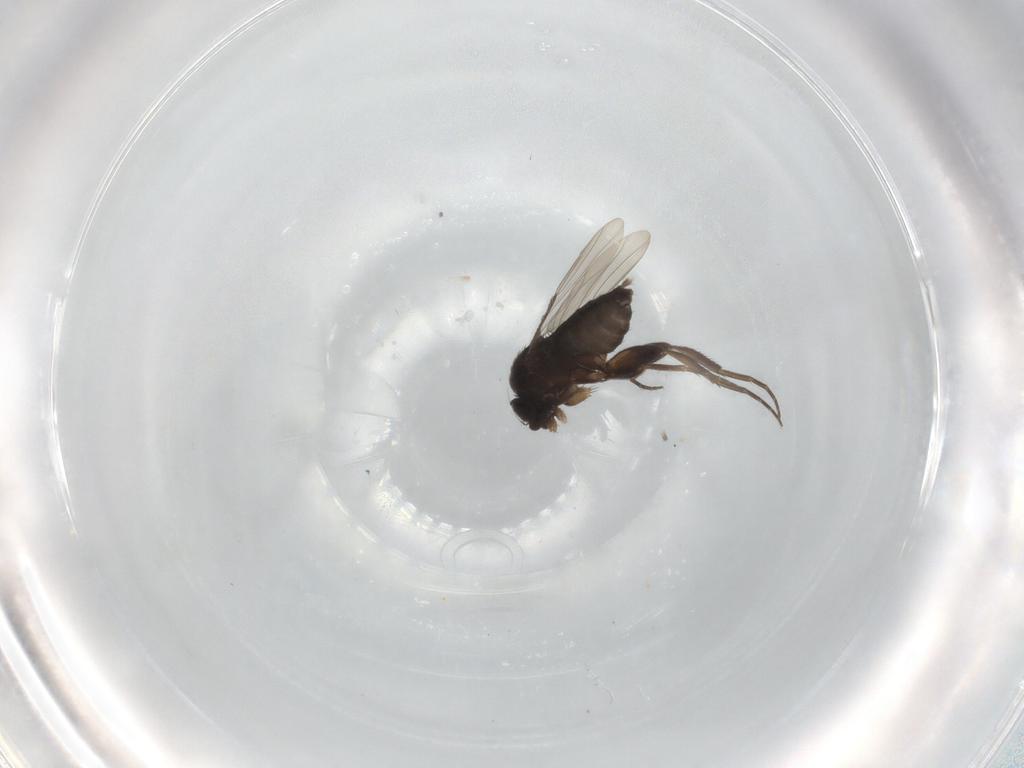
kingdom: Animalia
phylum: Arthropoda
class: Insecta
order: Diptera
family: Phoridae
